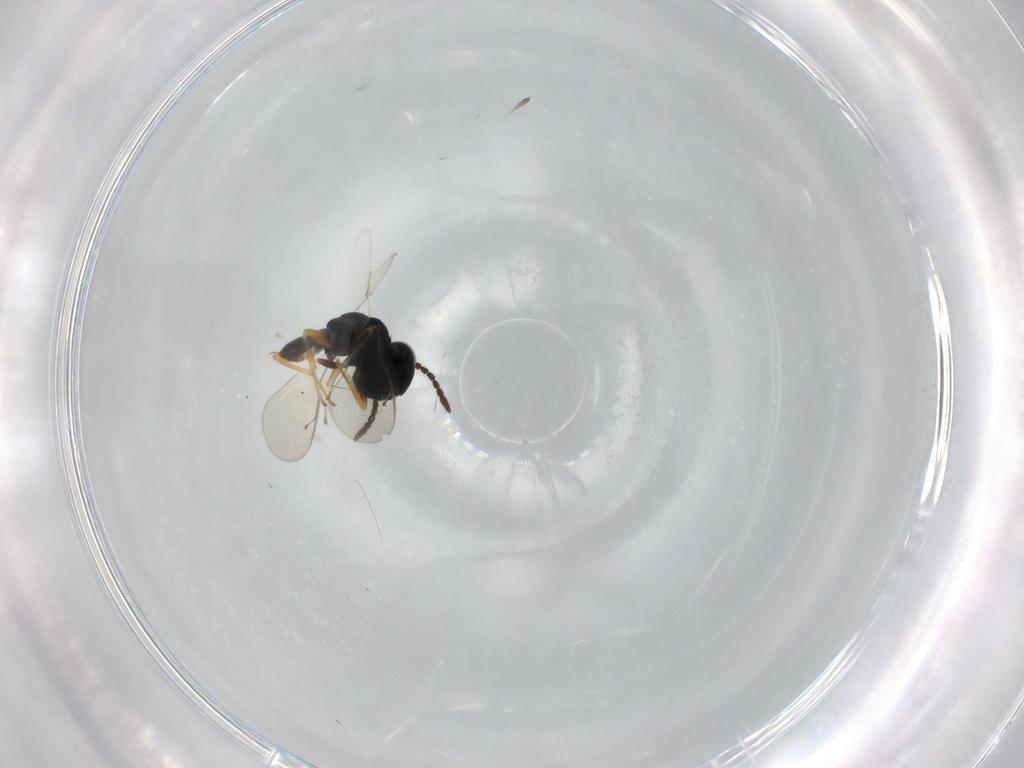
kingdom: Animalia
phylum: Arthropoda
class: Insecta
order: Hymenoptera
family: Pteromalidae
